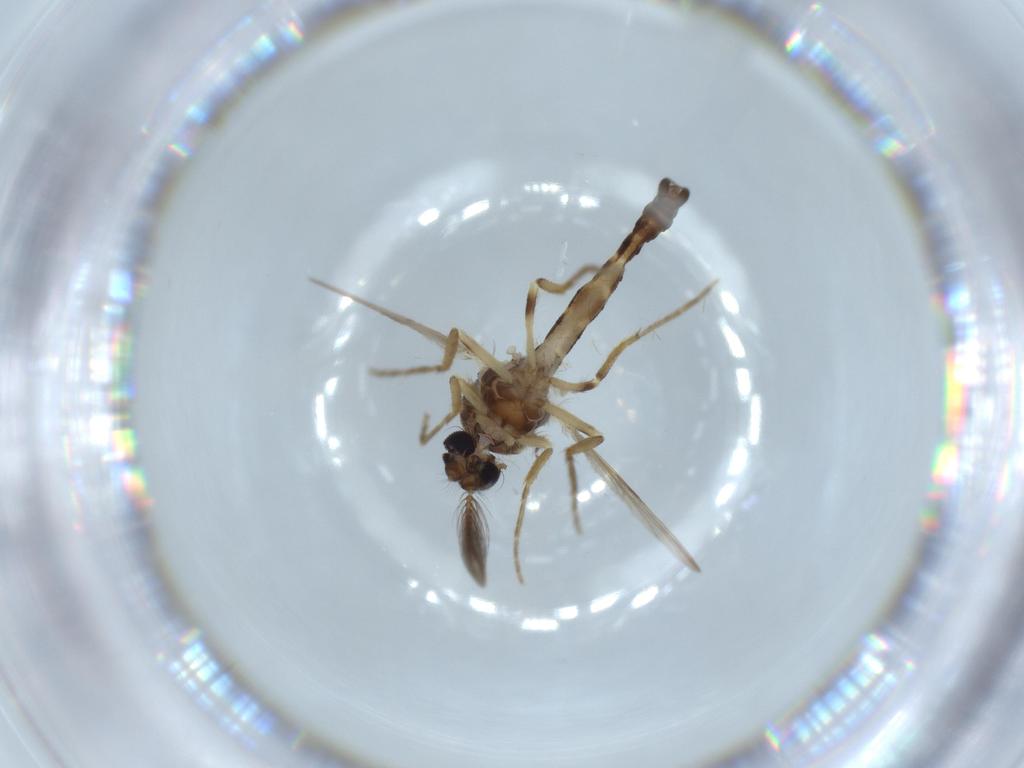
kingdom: Animalia
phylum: Arthropoda
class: Insecta
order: Diptera
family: Ceratopogonidae
